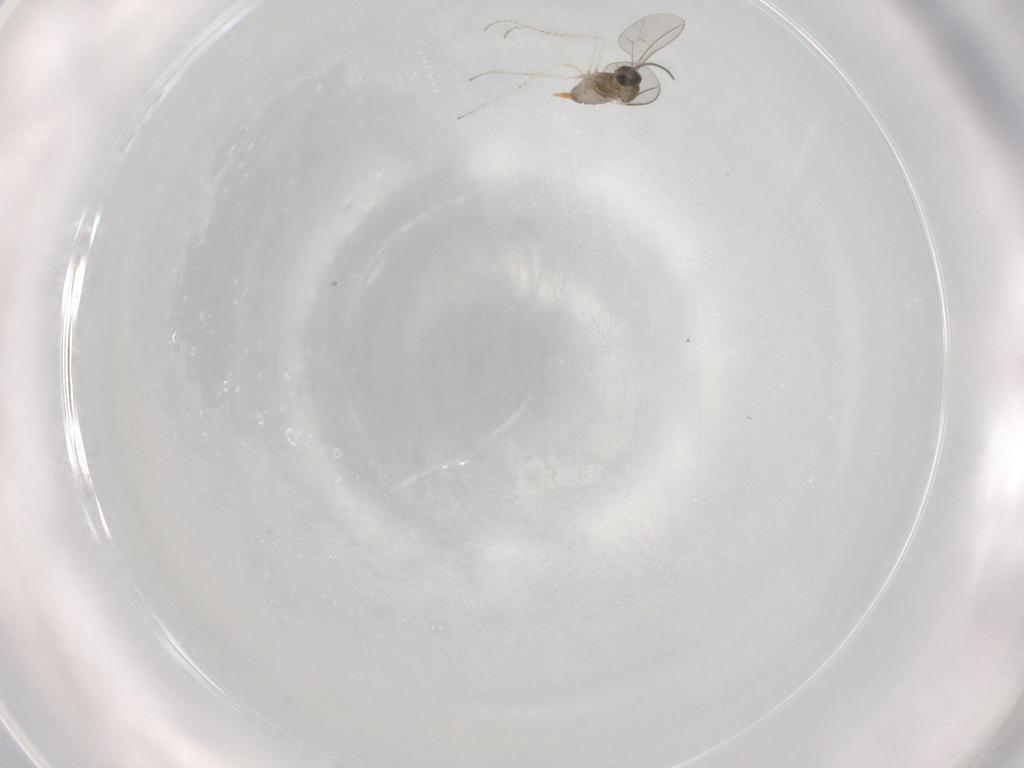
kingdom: Animalia
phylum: Arthropoda
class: Insecta
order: Diptera
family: Cecidomyiidae
